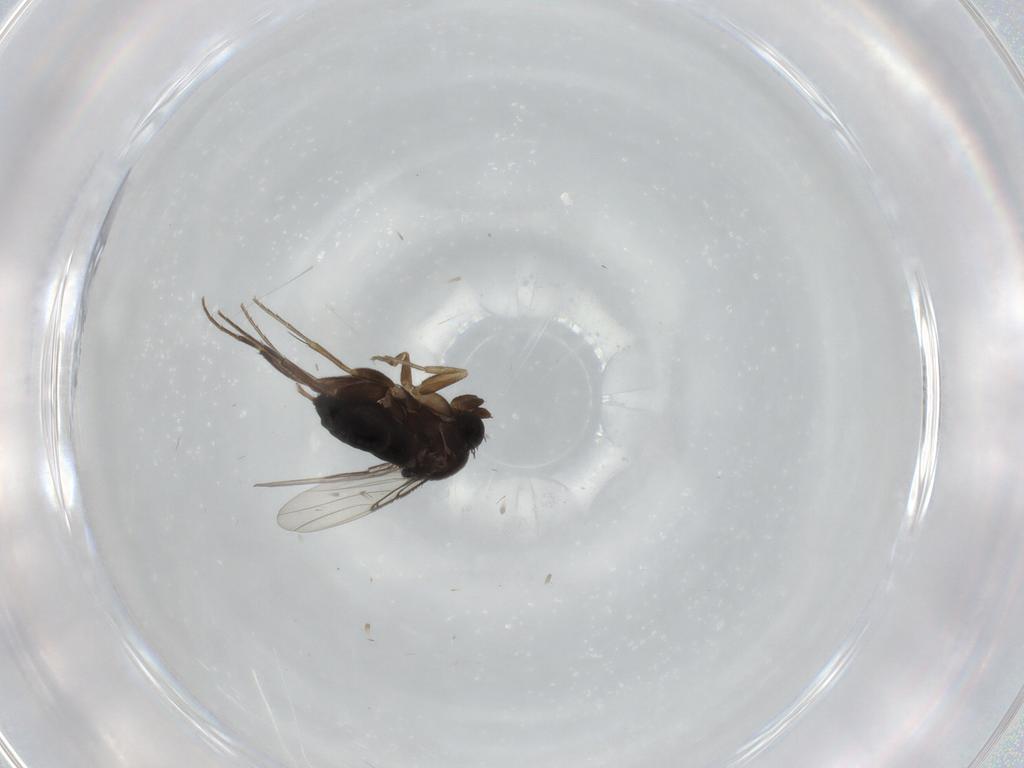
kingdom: Animalia
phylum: Arthropoda
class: Insecta
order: Diptera
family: Phoridae
